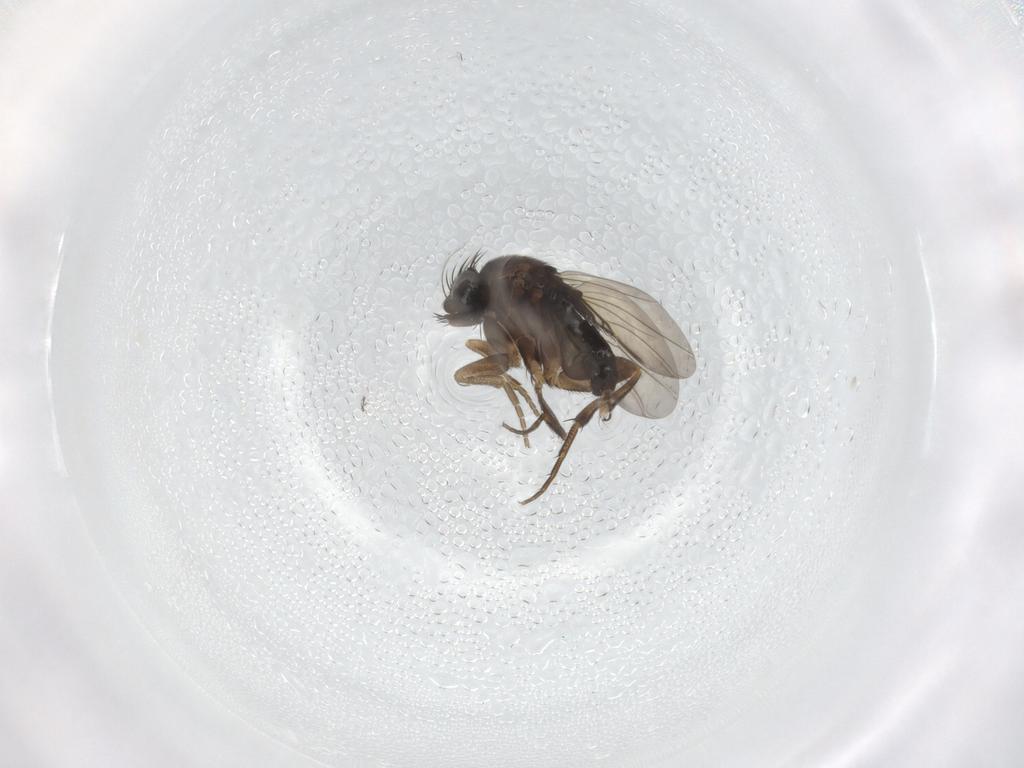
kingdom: Animalia
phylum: Arthropoda
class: Insecta
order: Diptera
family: Phoridae
